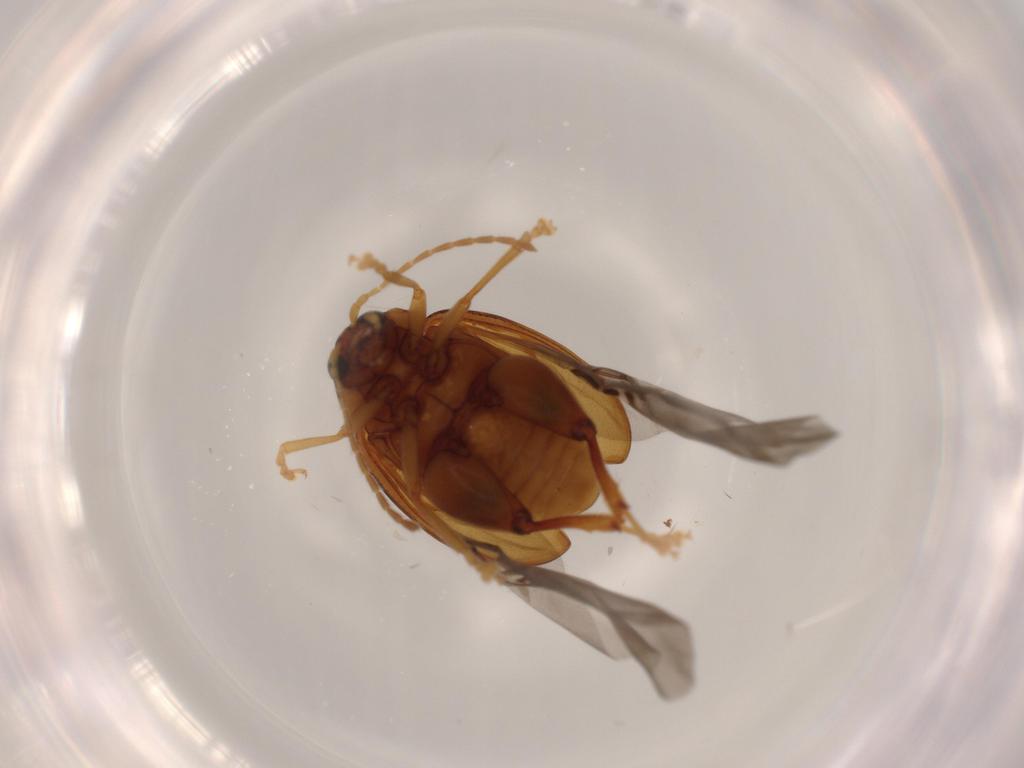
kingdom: Animalia
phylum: Arthropoda
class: Insecta
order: Coleoptera
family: Chrysomelidae
